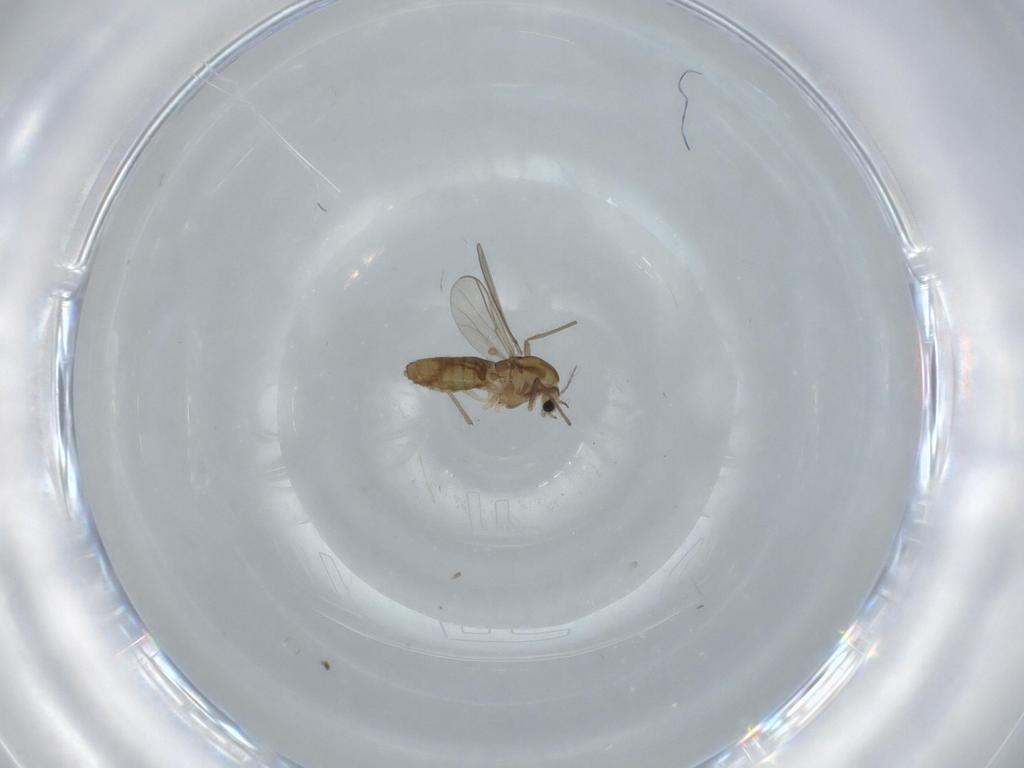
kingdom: Animalia
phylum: Arthropoda
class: Insecta
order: Diptera
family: Chironomidae
